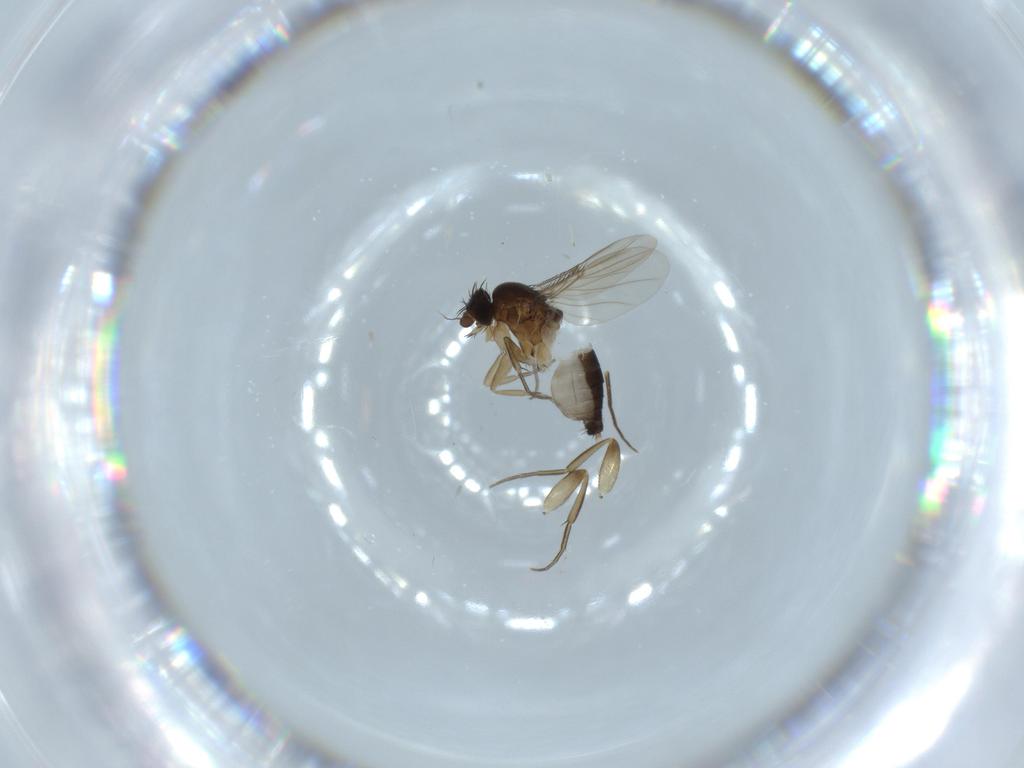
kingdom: Animalia
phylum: Arthropoda
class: Insecta
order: Diptera
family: Phoridae
